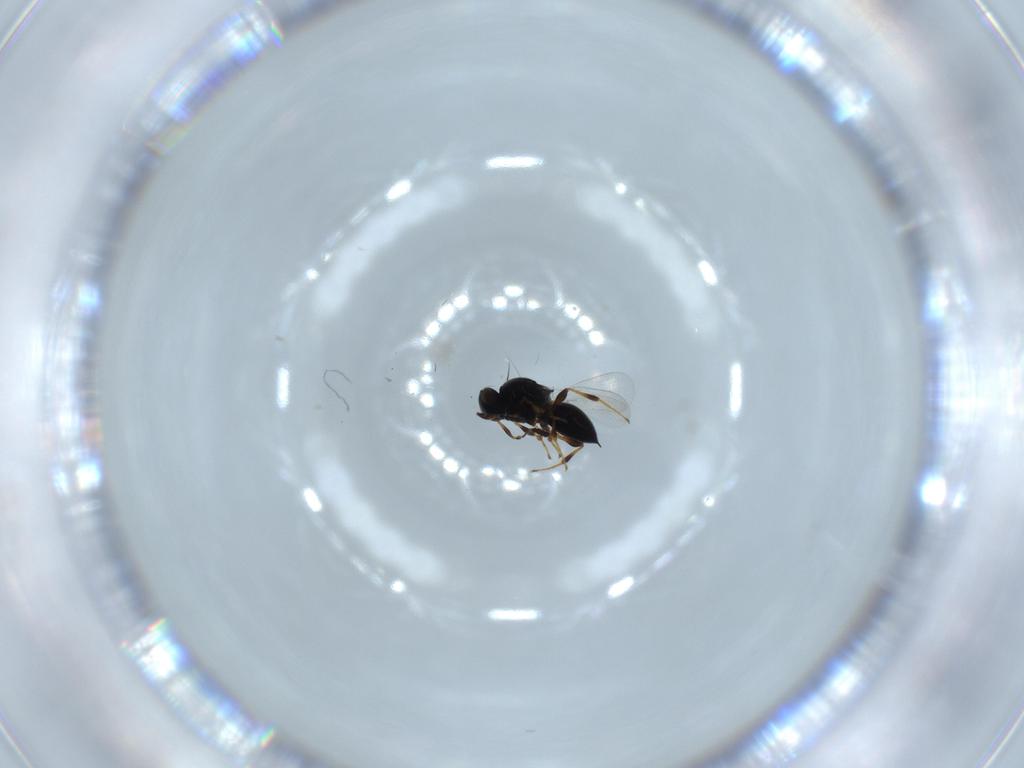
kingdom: Animalia
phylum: Arthropoda
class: Insecta
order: Hymenoptera
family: Platygastridae
